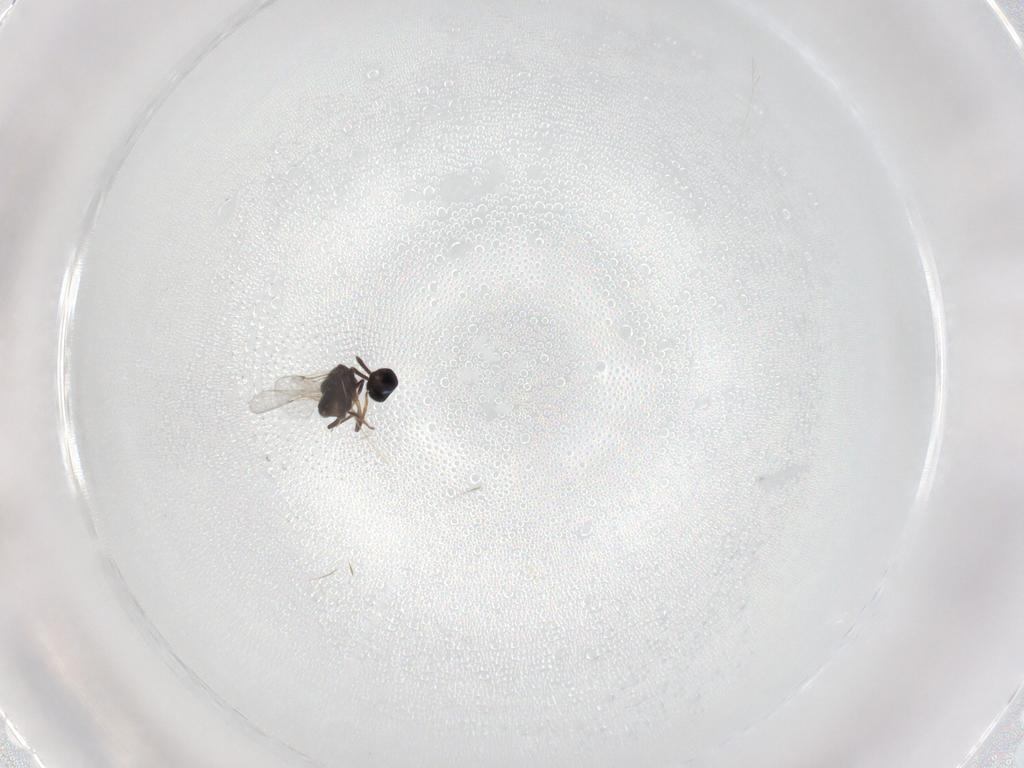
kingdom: Animalia
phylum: Arthropoda
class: Insecta
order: Hymenoptera
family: Encyrtidae
